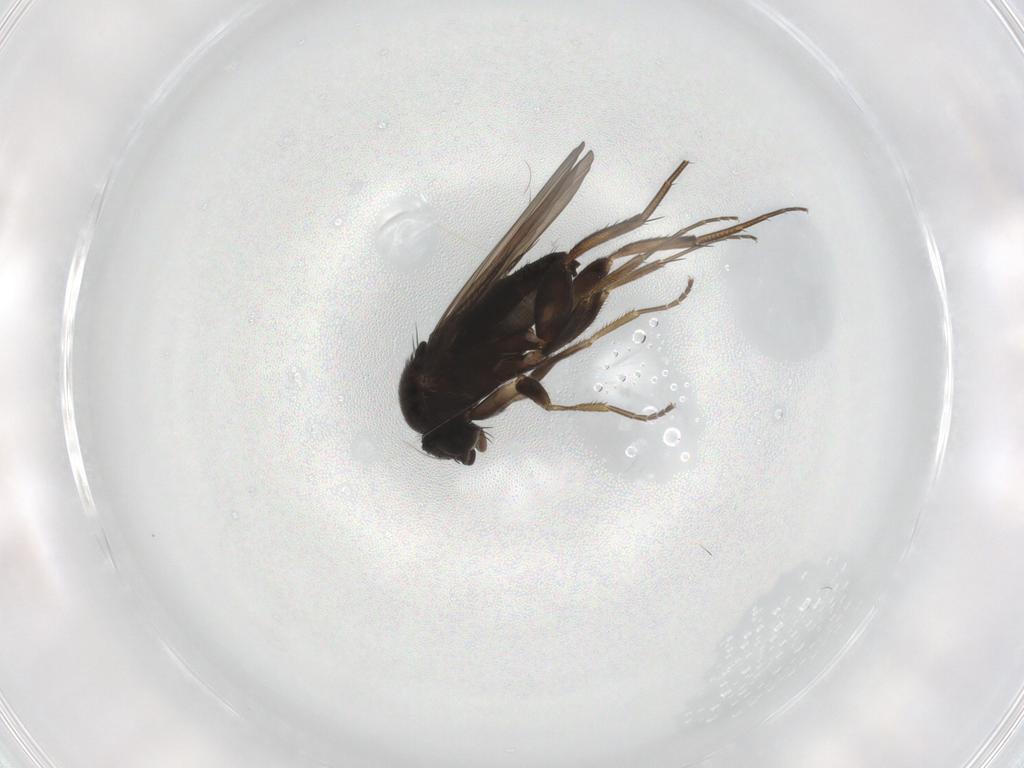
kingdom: Animalia
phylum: Arthropoda
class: Insecta
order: Diptera
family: Phoridae
